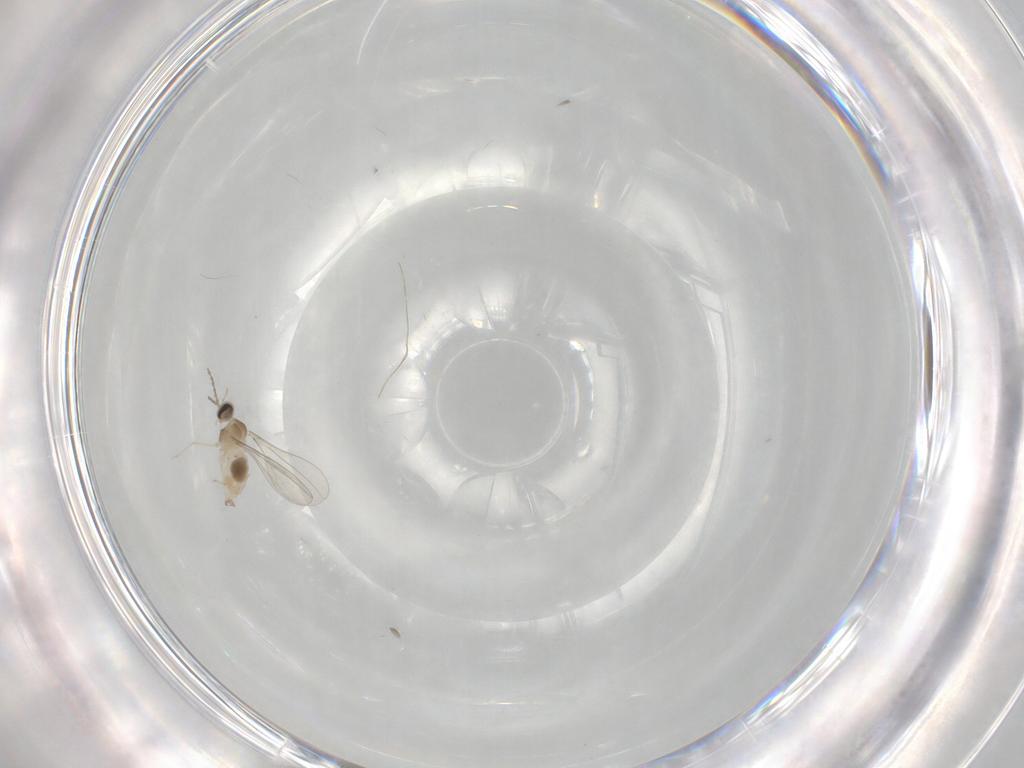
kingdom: Animalia
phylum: Arthropoda
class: Insecta
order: Diptera
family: Cecidomyiidae
